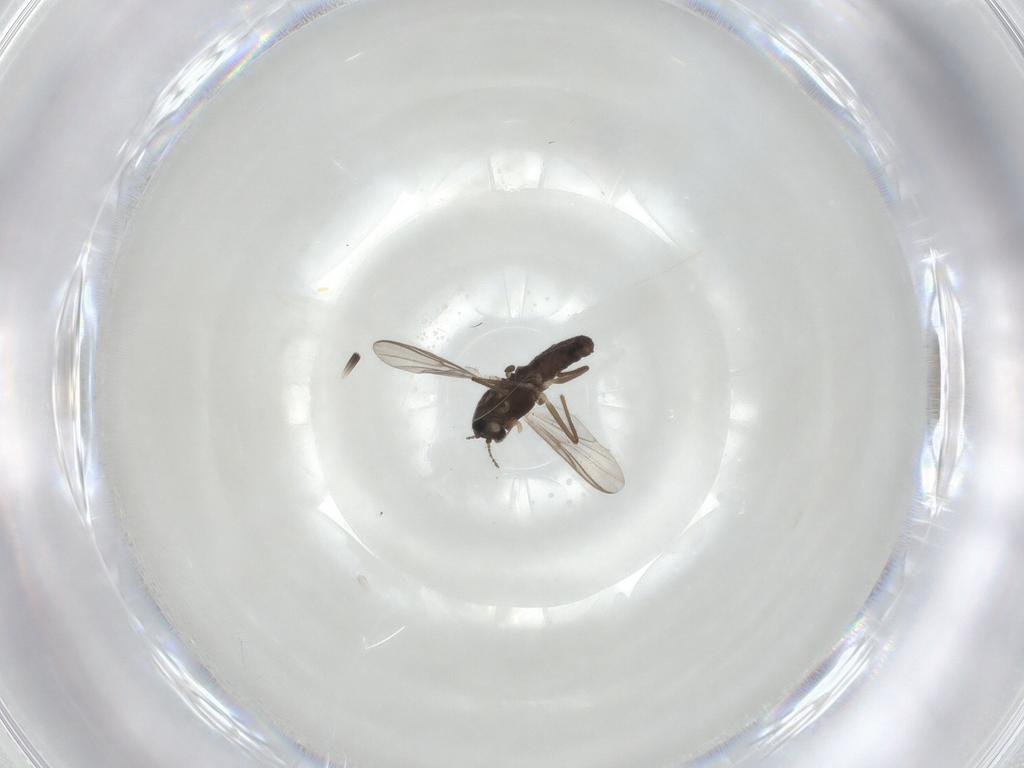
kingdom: Animalia
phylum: Arthropoda
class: Insecta
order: Diptera
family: Chironomidae
